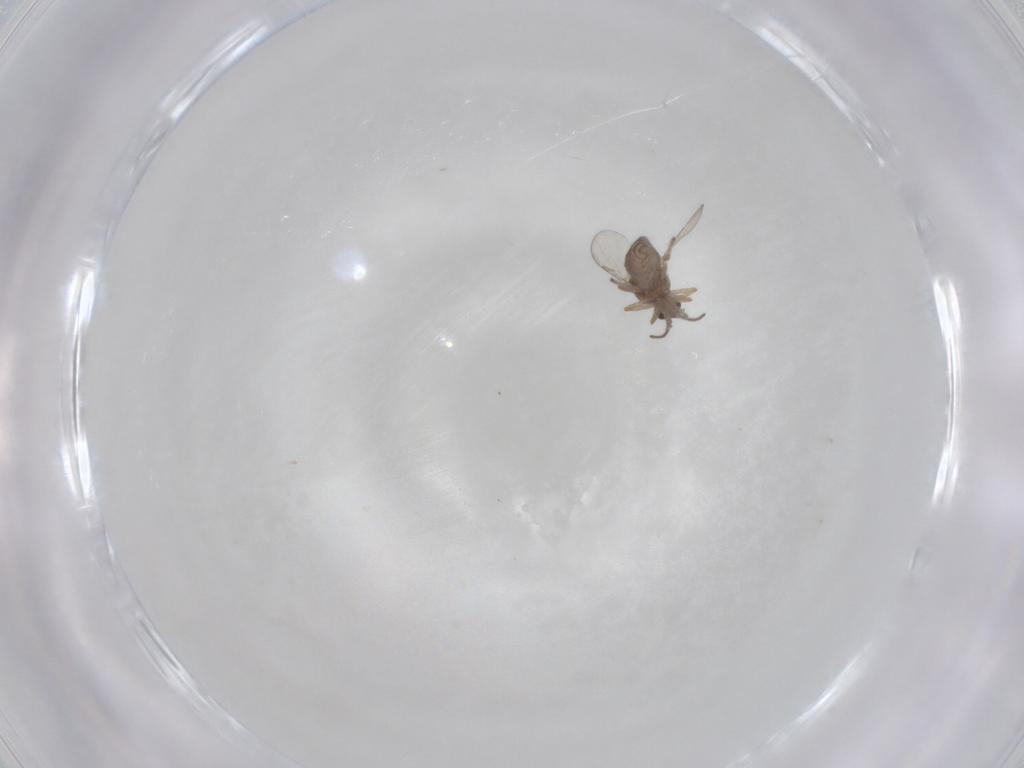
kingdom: Animalia
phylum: Arthropoda
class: Insecta
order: Diptera
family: Ceratopogonidae
